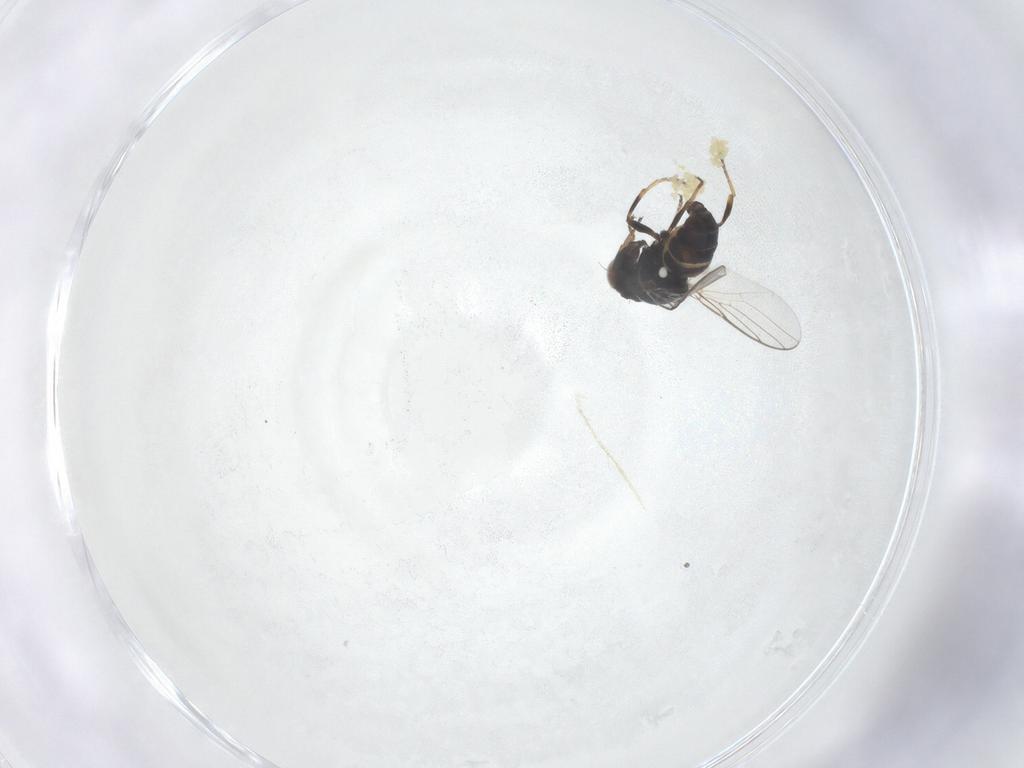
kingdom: Animalia
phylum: Arthropoda
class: Insecta
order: Diptera
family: Chloropidae
